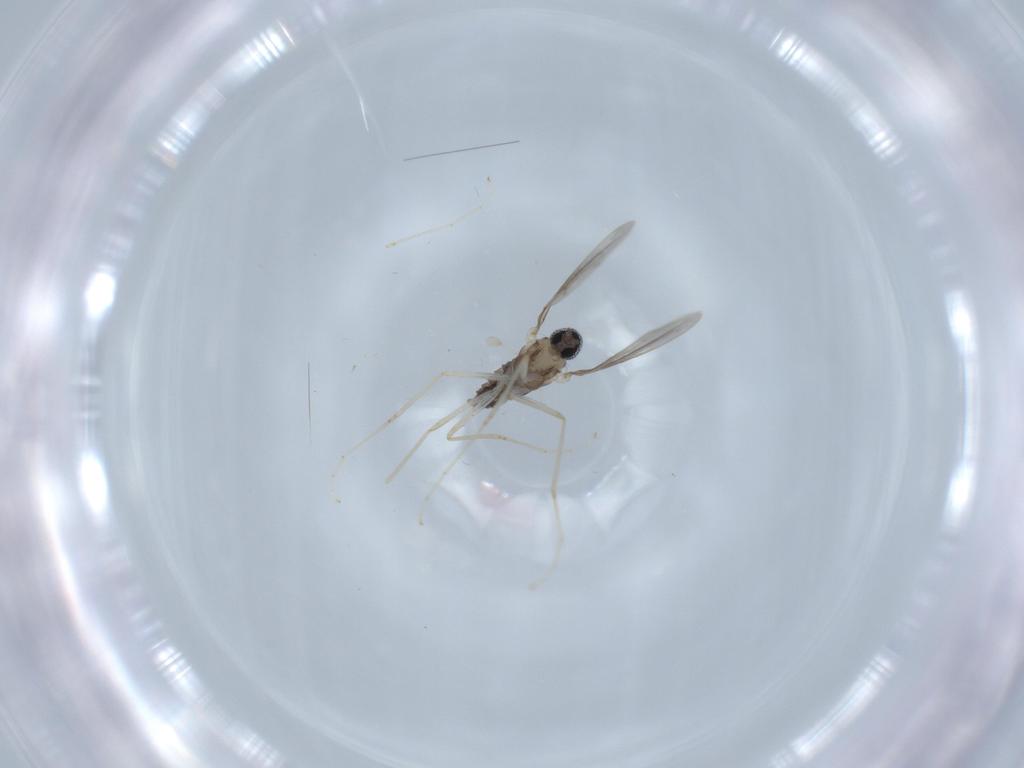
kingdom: Animalia
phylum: Arthropoda
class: Insecta
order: Diptera
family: Cecidomyiidae
